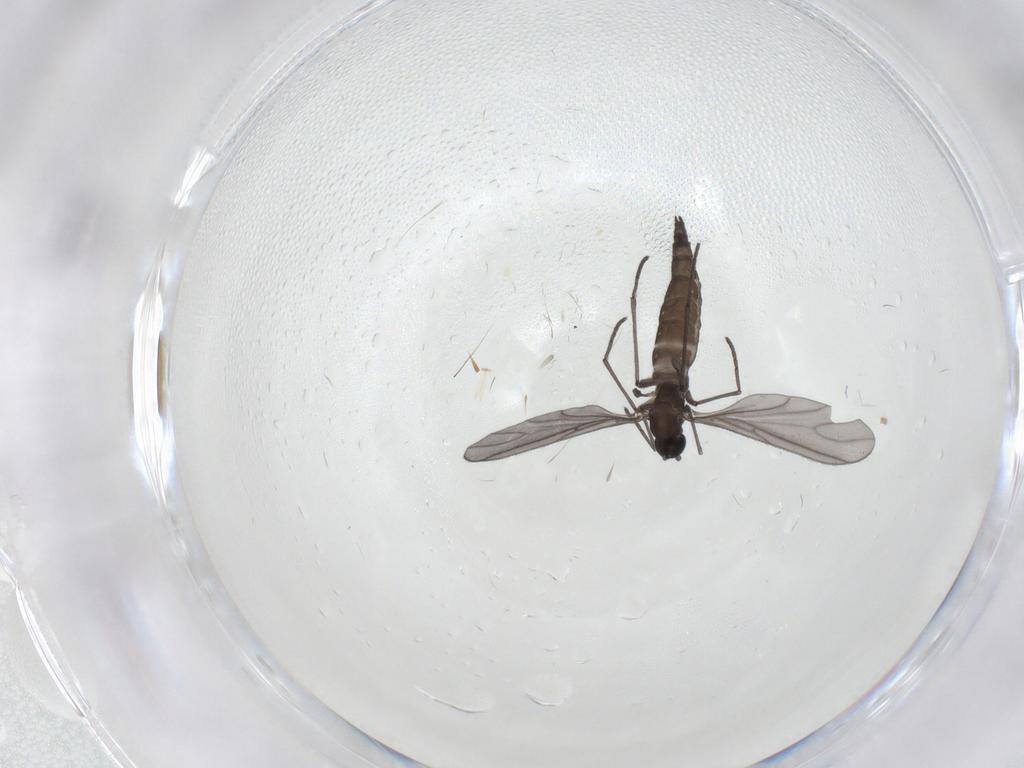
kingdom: Animalia
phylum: Arthropoda
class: Insecta
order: Diptera
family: Sciaridae
